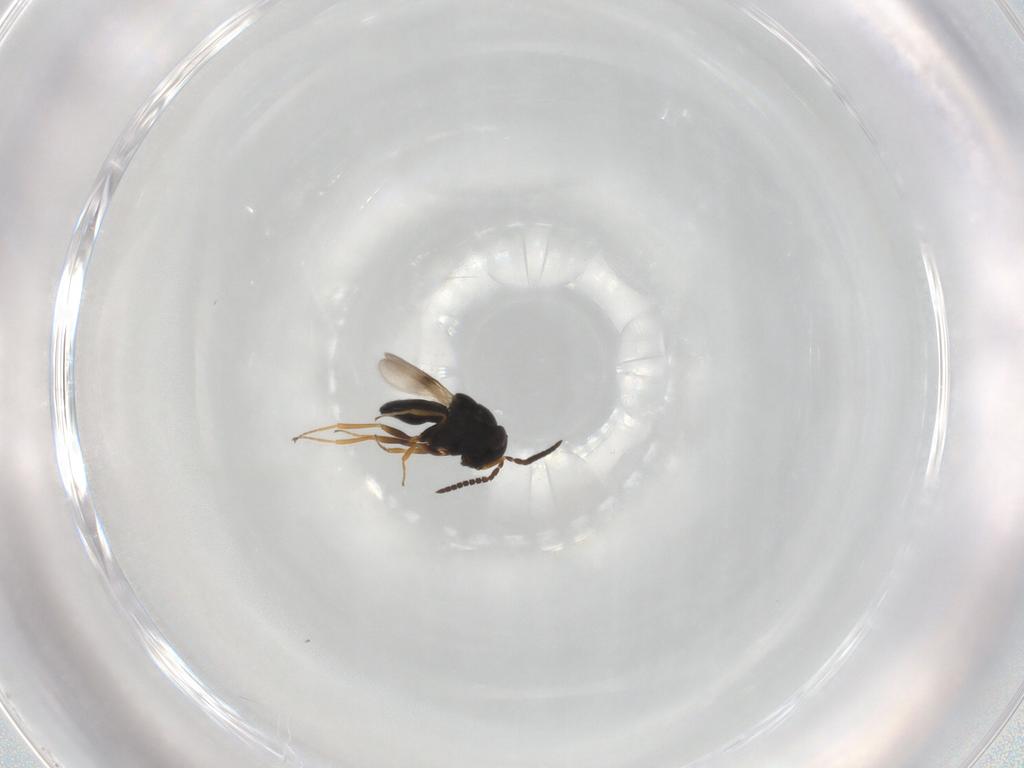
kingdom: Animalia
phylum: Arthropoda
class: Insecta
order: Hymenoptera
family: Scelionidae
